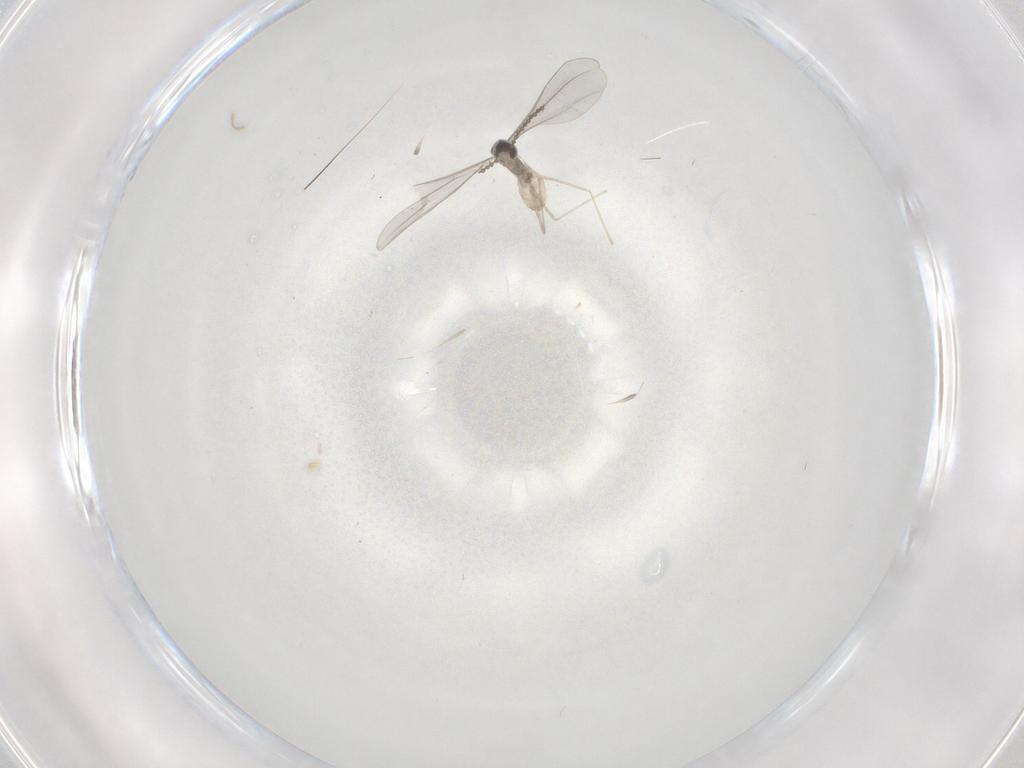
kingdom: Animalia
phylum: Arthropoda
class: Insecta
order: Diptera
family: Cecidomyiidae
